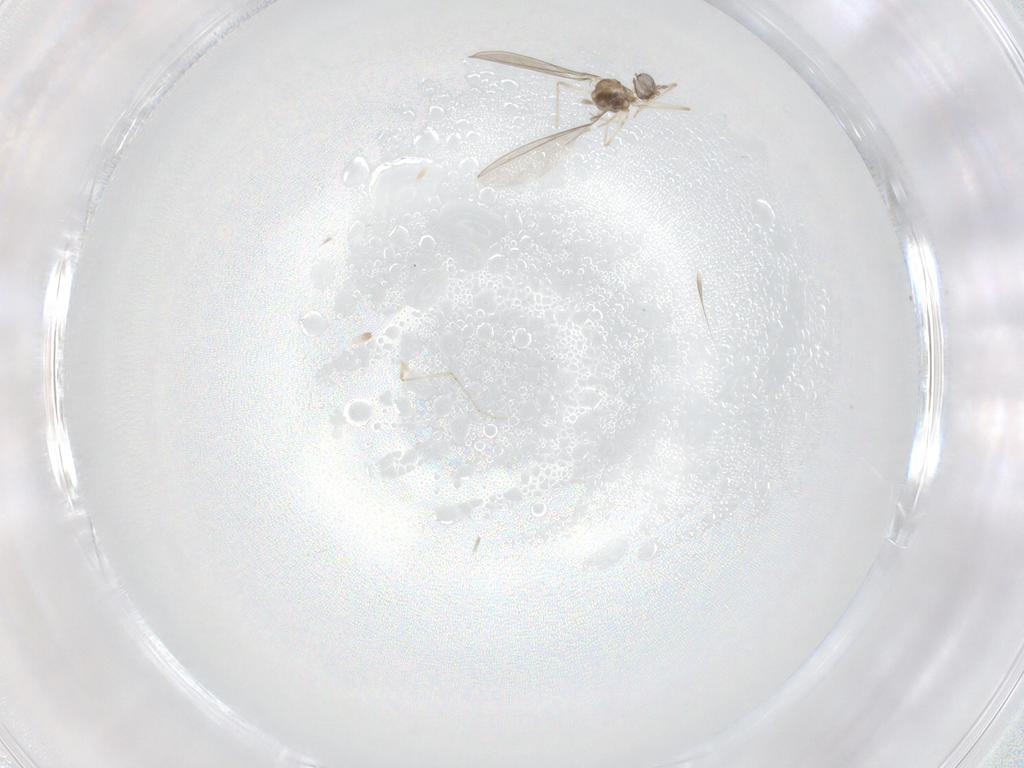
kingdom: Animalia
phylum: Arthropoda
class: Insecta
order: Diptera
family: Cecidomyiidae
